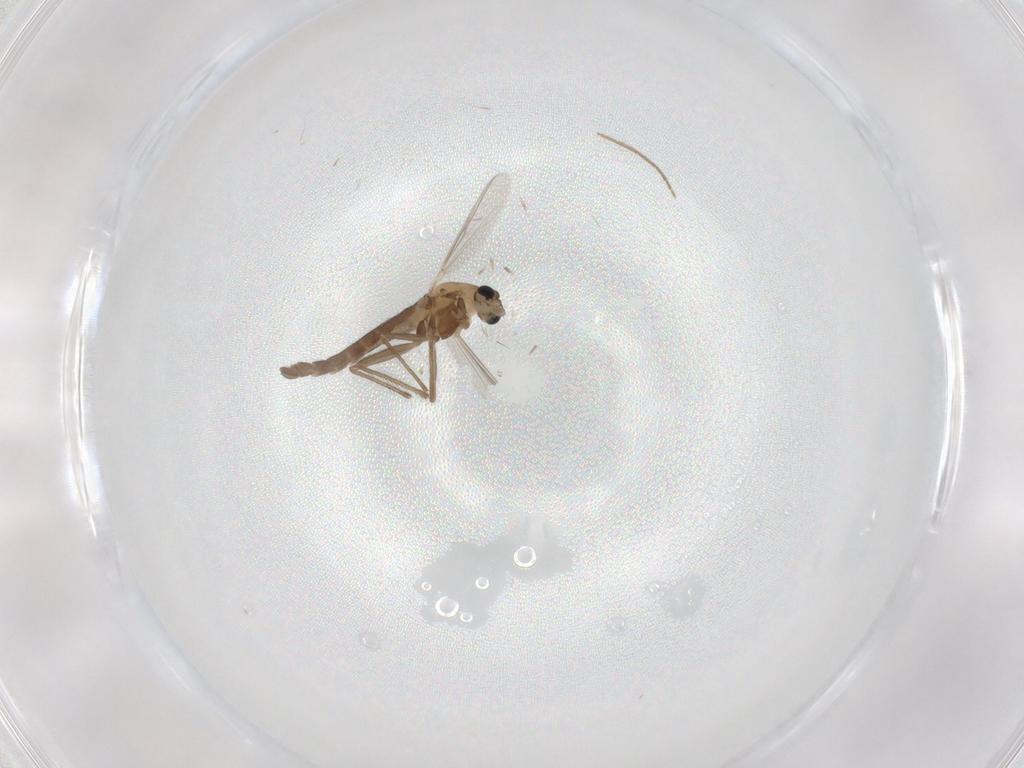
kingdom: Animalia
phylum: Arthropoda
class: Insecta
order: Diptera
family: Chironomidae
